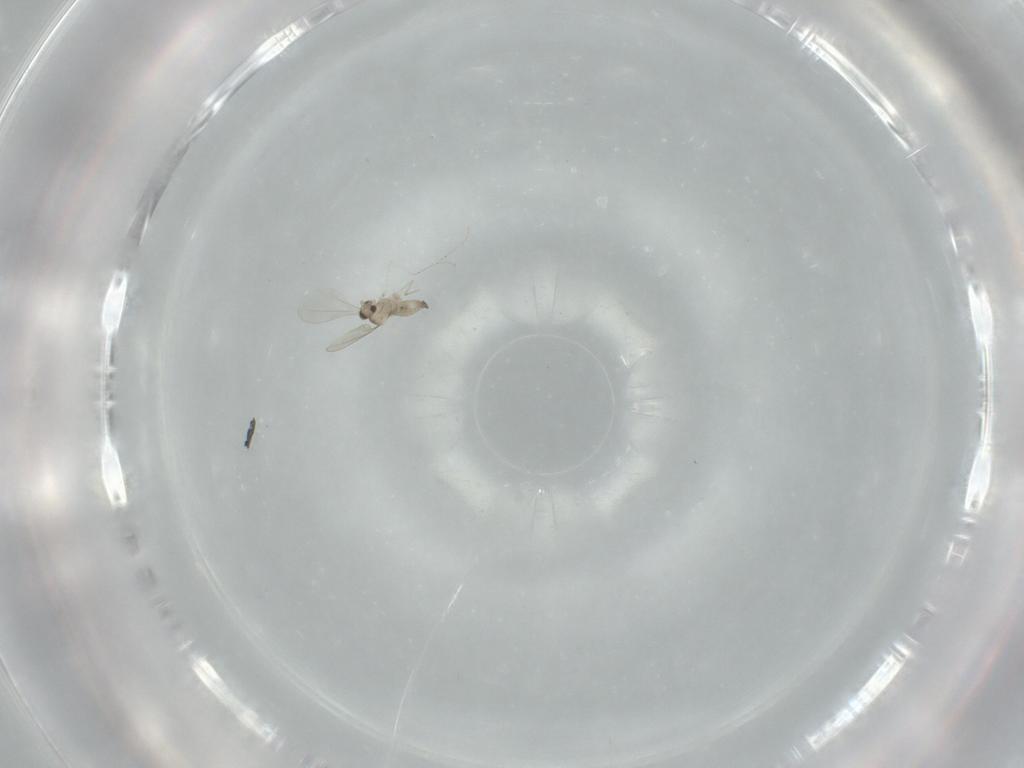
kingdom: Animalia
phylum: Arthropoda
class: Insecta
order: Diptera
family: Cecidomyiidae
